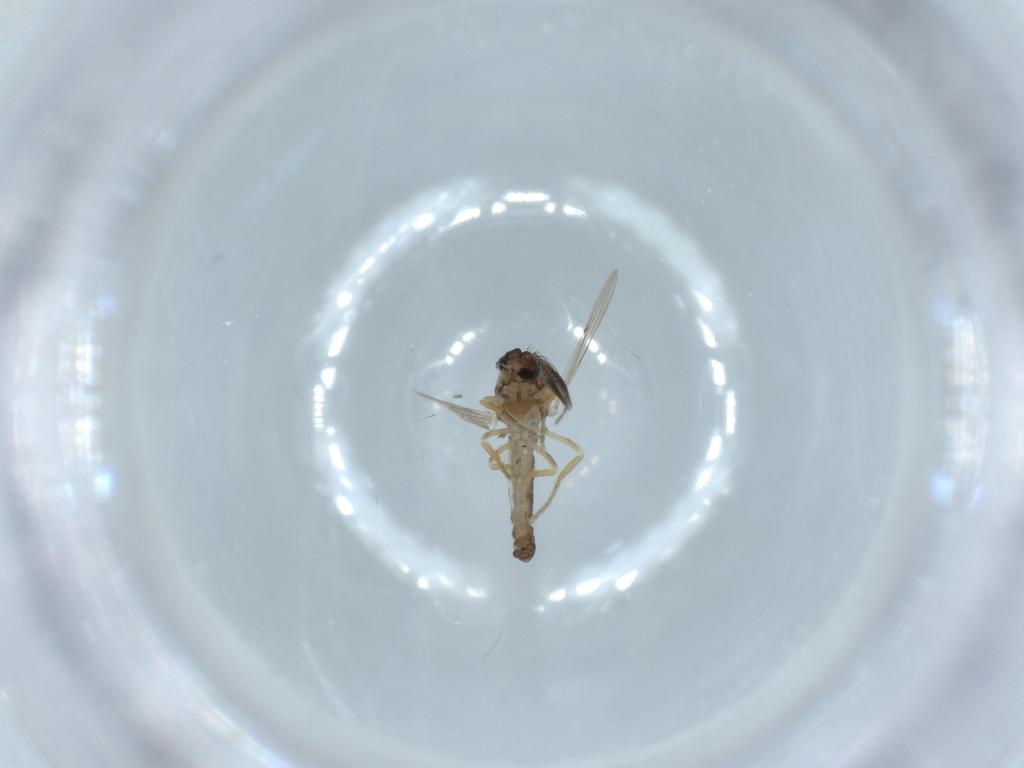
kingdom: Animalia
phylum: Arthropoda
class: Insecta
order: Diptera
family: Ceratopogonidae
